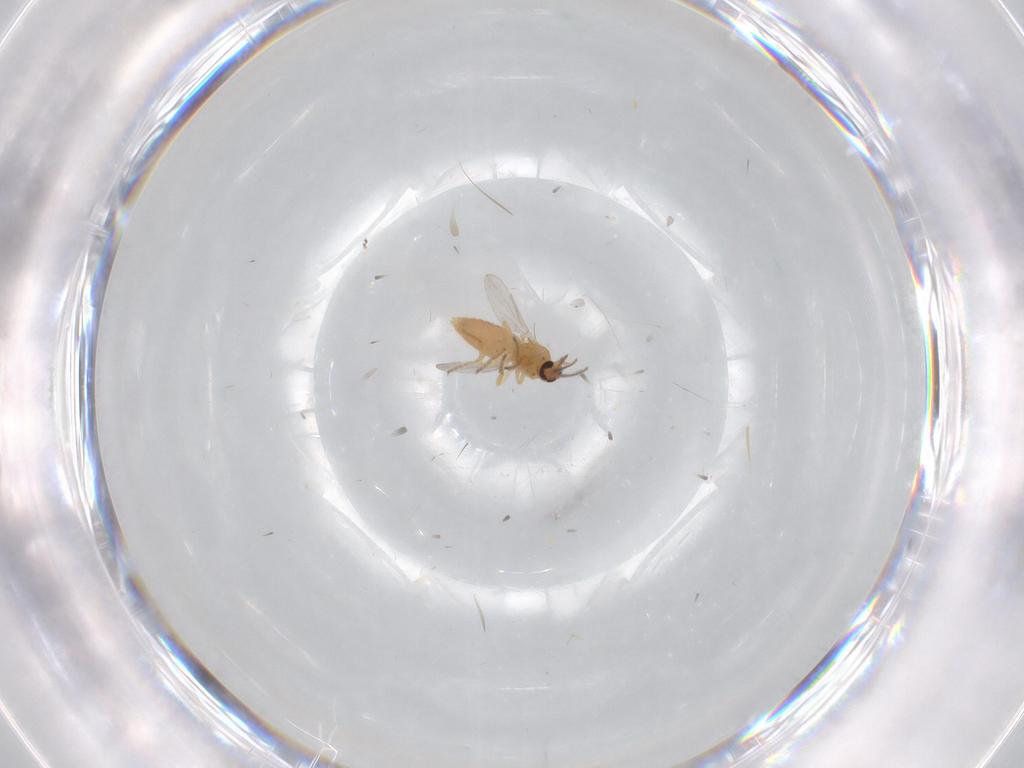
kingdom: Animalia
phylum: Arthropoda
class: Insecta
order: Diptera
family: Ceratopogonidae
